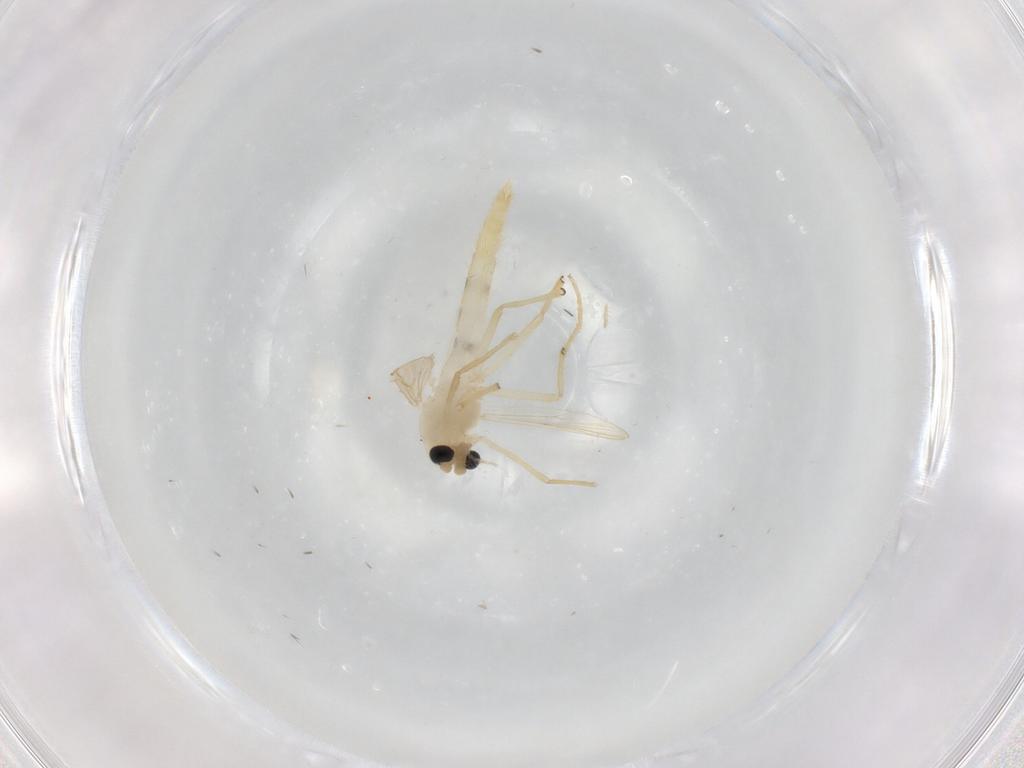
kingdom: Animalia
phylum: Arthropoda
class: Insecta
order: Diptera
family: Chironomidae
